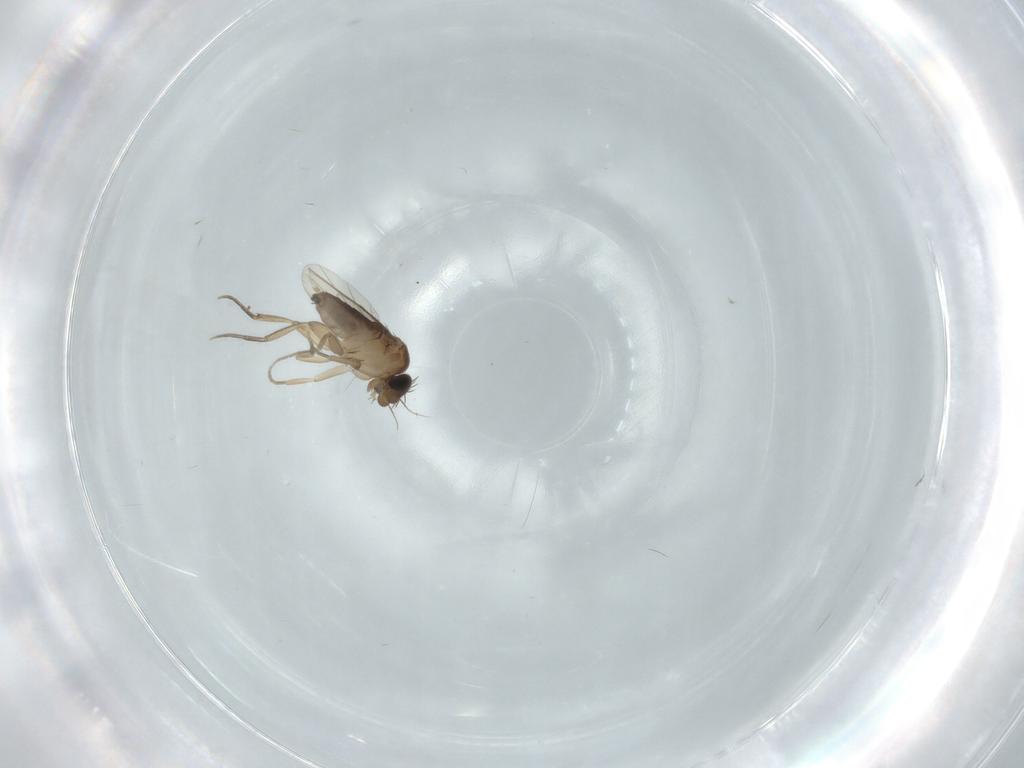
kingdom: Animalia
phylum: Arthropoda
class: Insecta
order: Diptera
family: Phoridae
